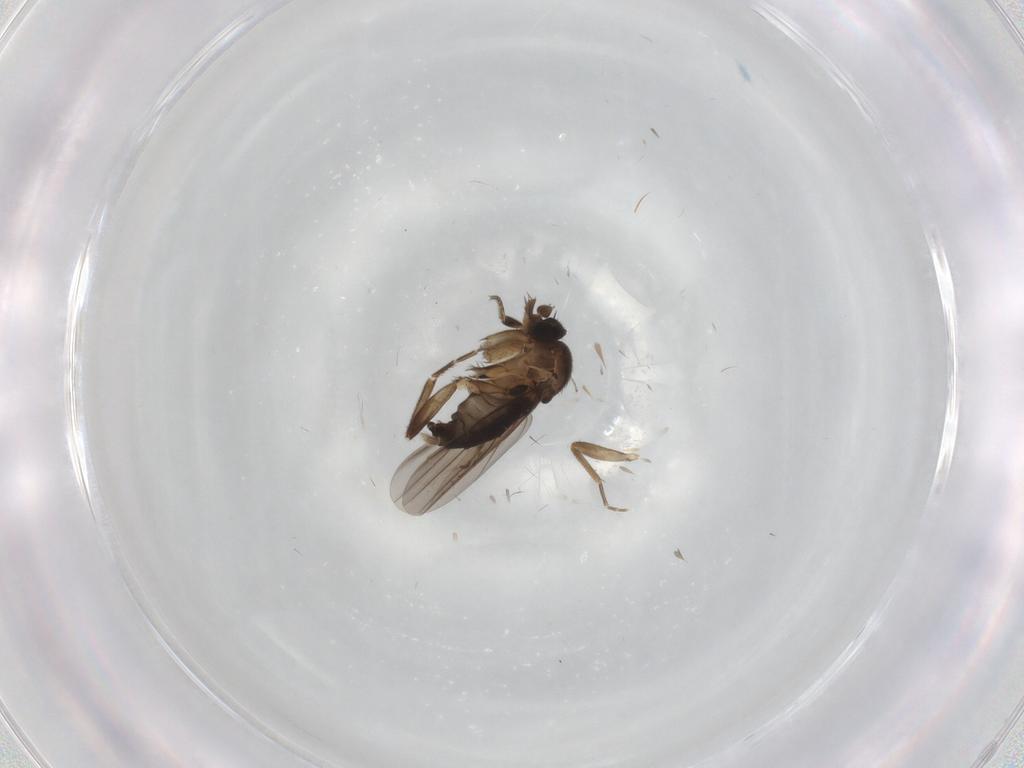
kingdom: Animalia
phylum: Arthropoda
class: Insecta
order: Diptera
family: Phoridae
